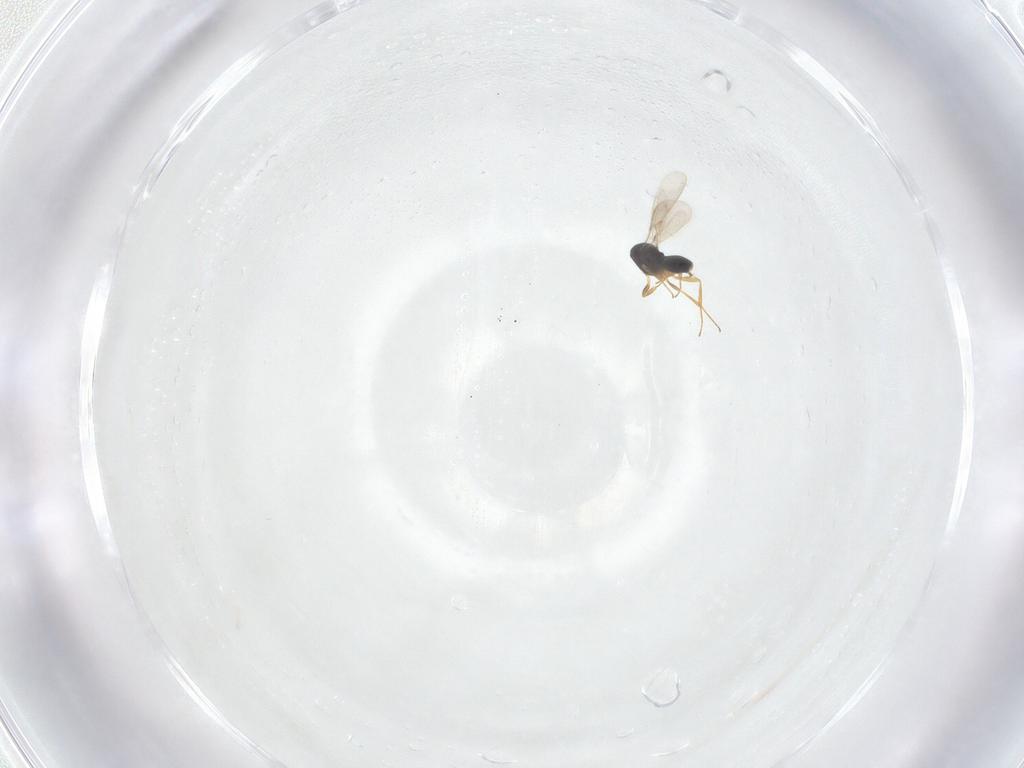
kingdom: Animalia
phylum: Arthropoda
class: Insecta
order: Hymenoptera
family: Scelionidae
